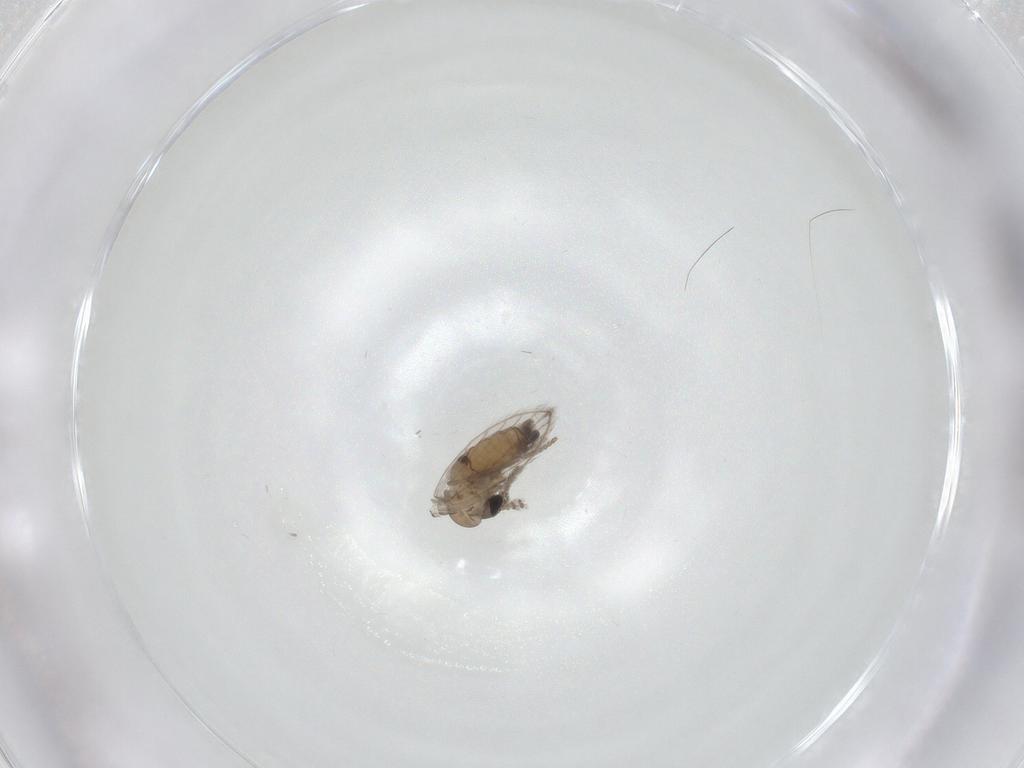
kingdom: Animalia
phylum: Arthropoda
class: Insecta
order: Diptera
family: Psychodidae
